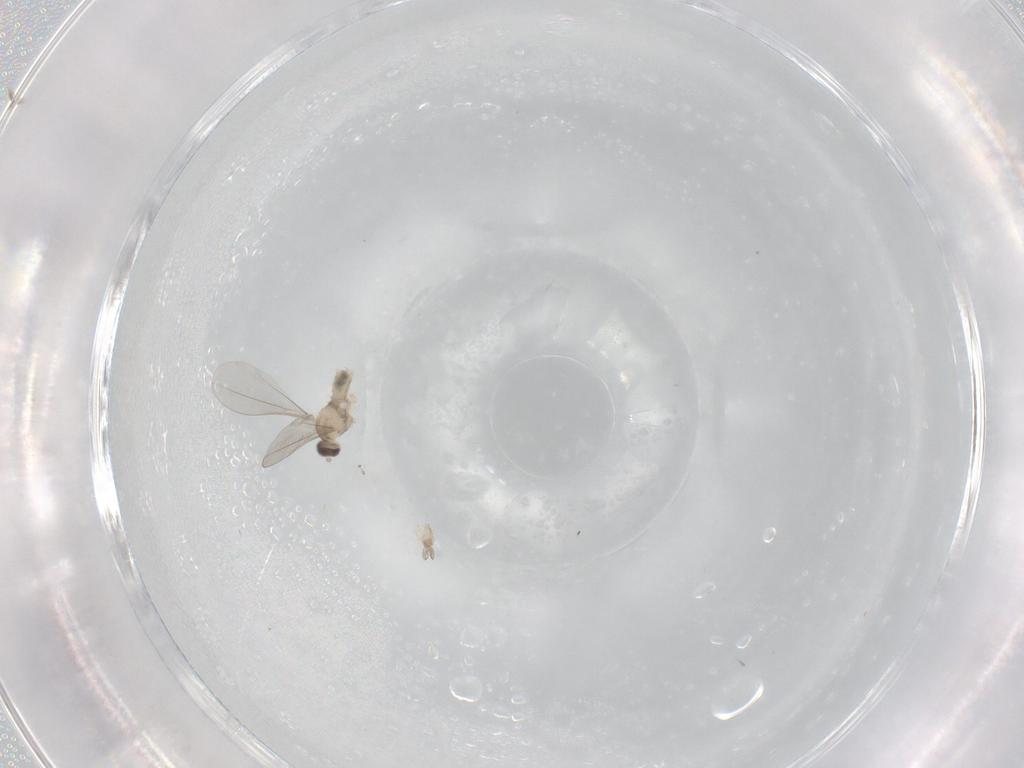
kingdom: Animalia
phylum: Arthropoda
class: Insecta
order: Diptera
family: Cecidomyiidae
